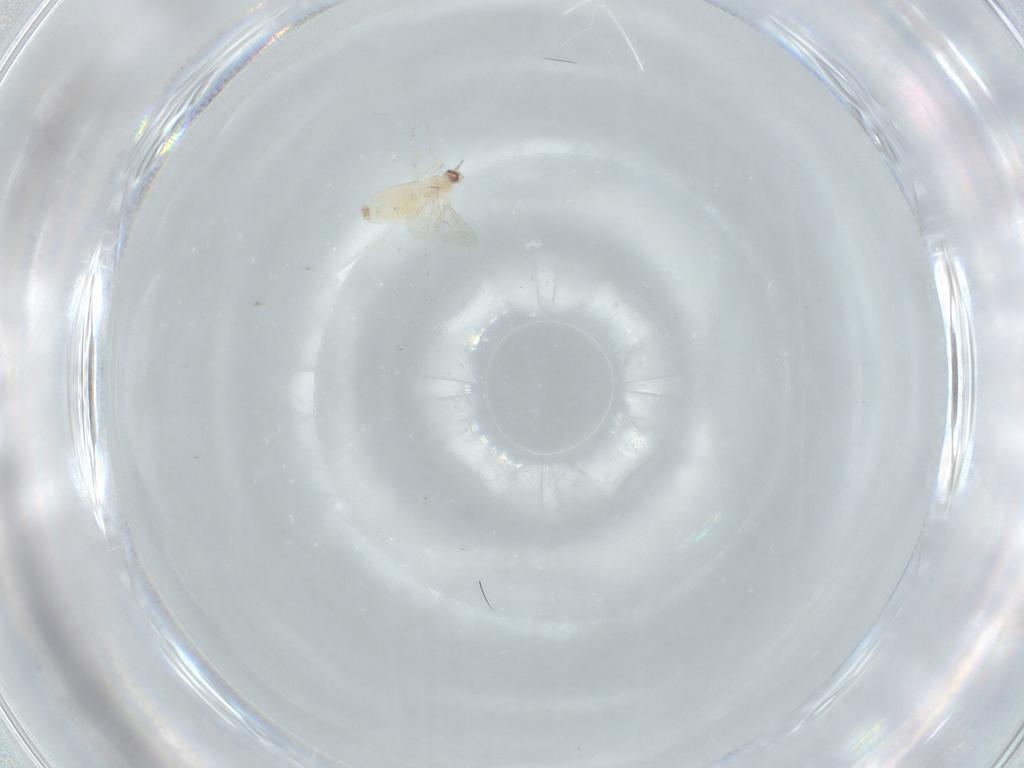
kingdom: Animalia
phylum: Arthropoda
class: Insecta
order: Diptera
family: Cecidomyiidae
